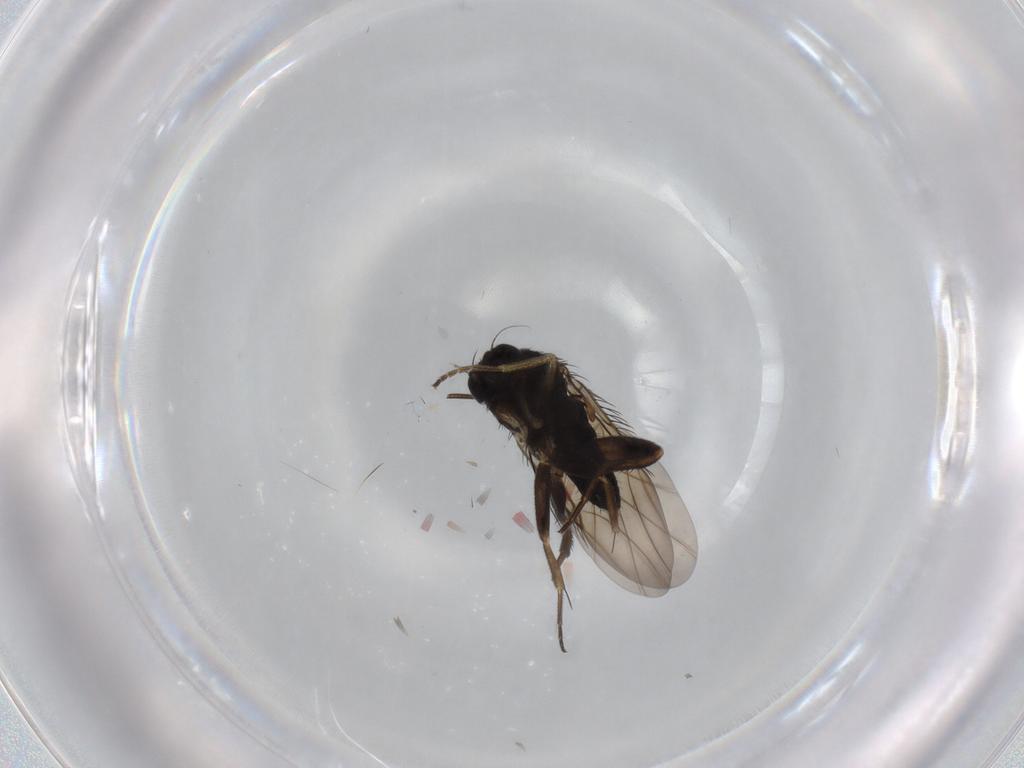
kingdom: Animalia
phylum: Arthropoda
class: Insecta
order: Diptera
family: Phoridae
